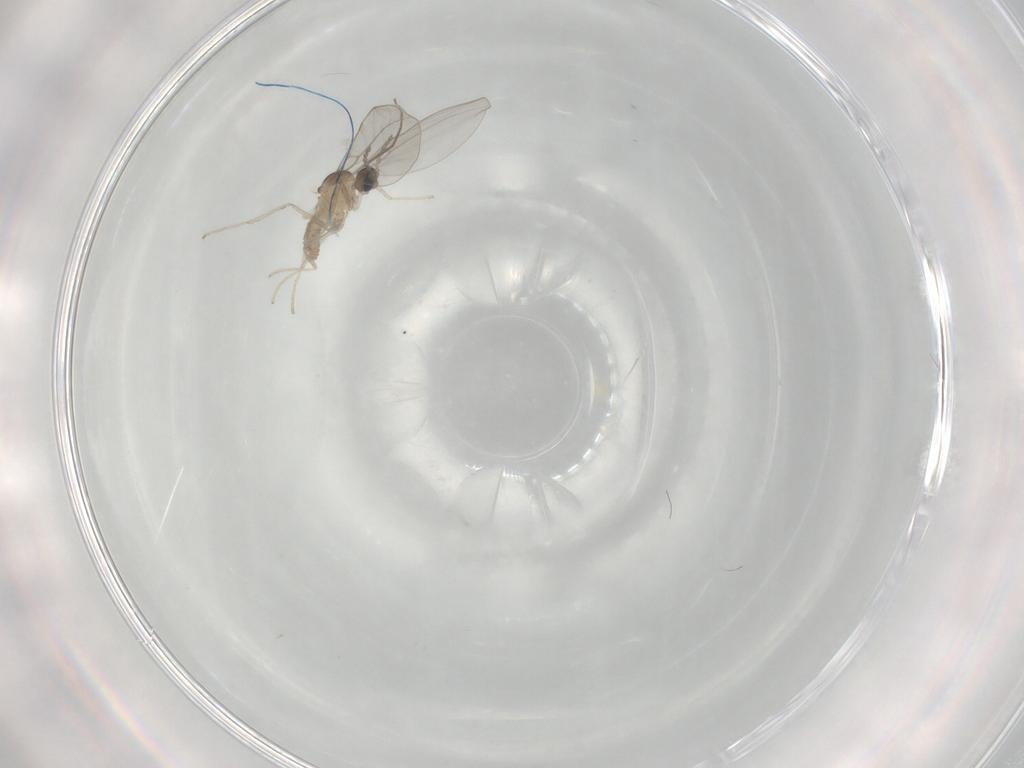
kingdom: Animalia
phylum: Arthropoda
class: Insecta
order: Diptera
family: Cecidomyiidae
